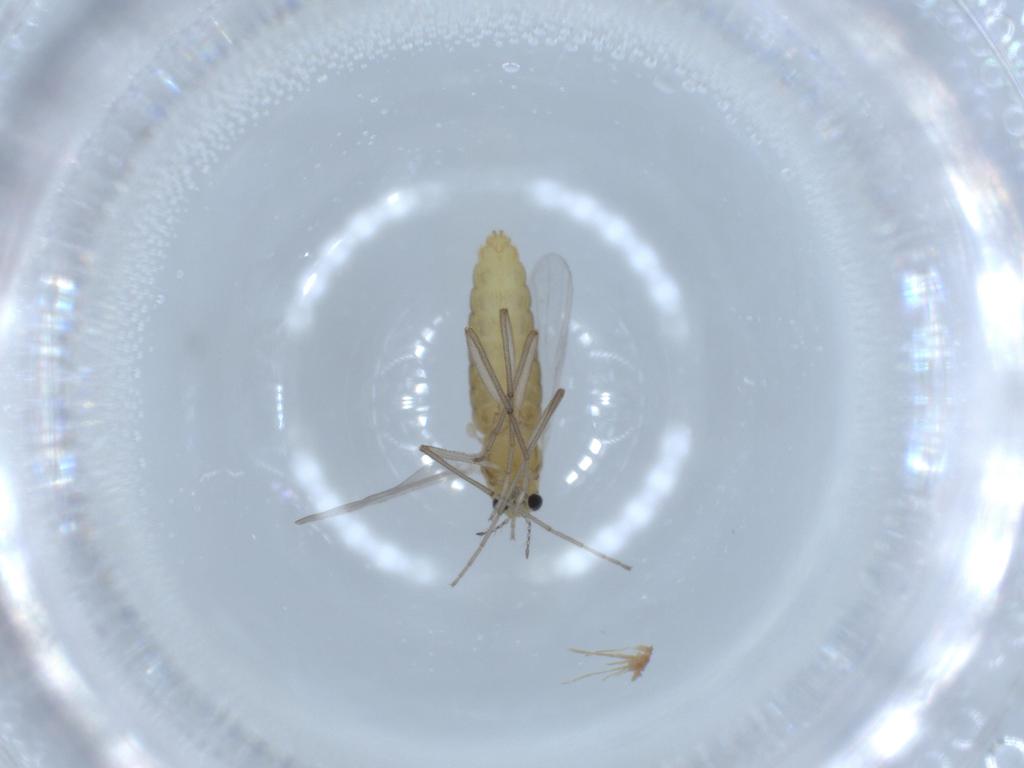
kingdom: Animalia
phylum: Arthropoda
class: Insecta
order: Diptera
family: Chironomidae
